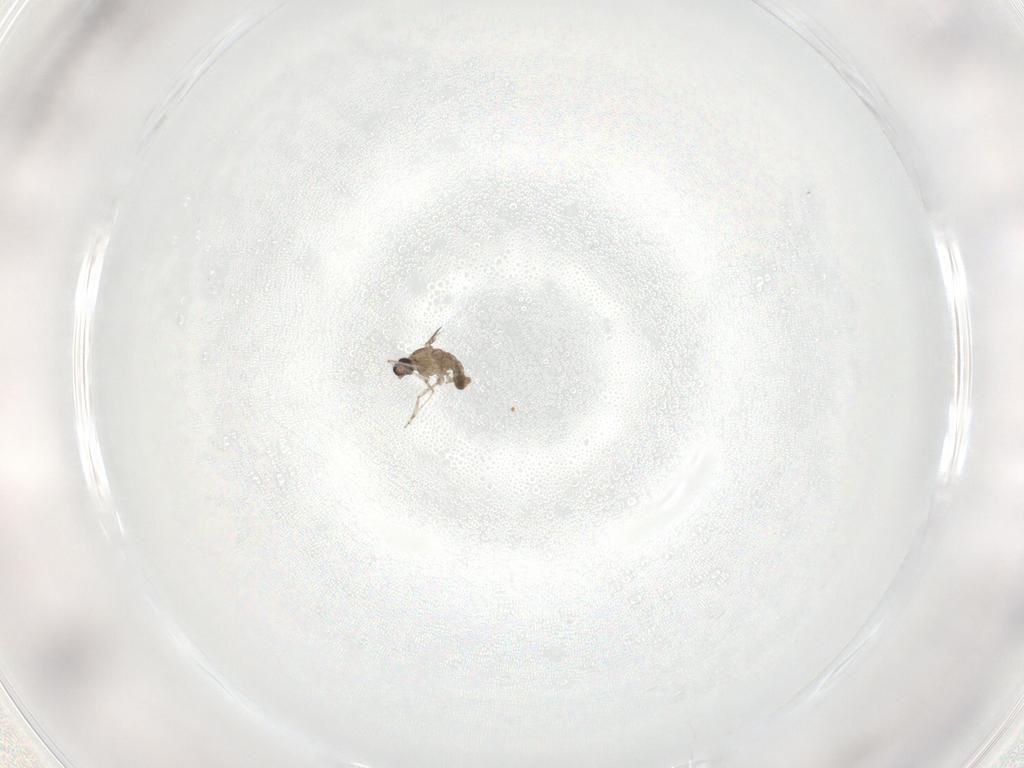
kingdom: Animalia
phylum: Arthropoda
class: Insecta
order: Diptera
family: Cecidomyiidae
